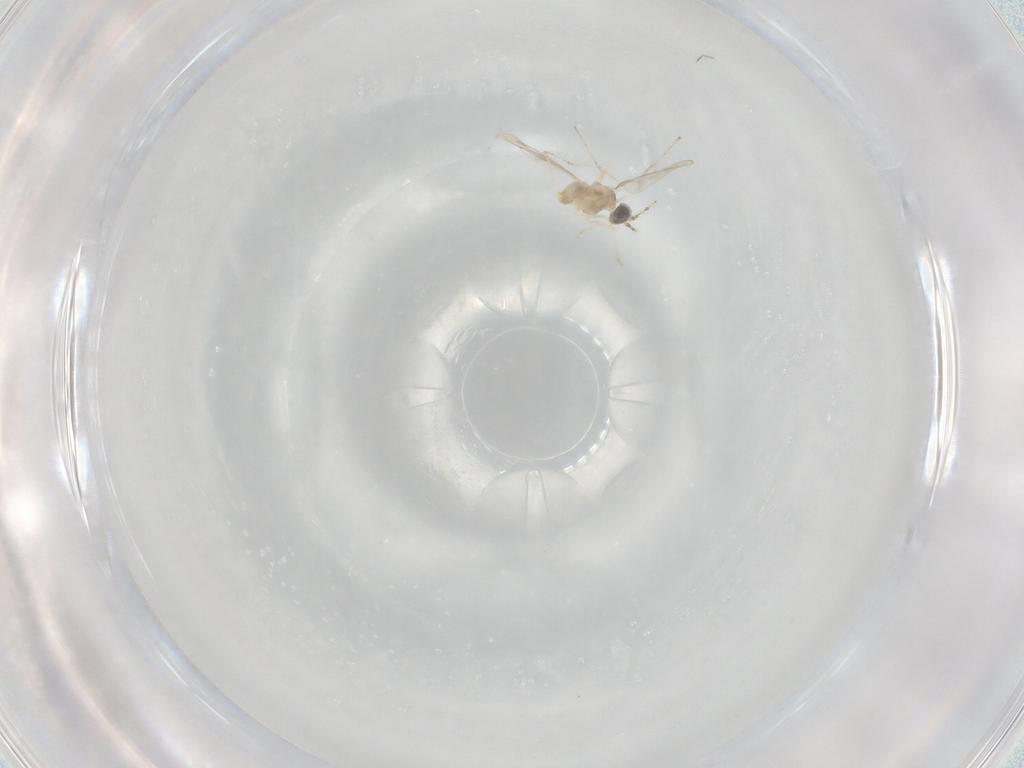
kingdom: Animalia
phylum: Arthropoda
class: Insecta
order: Diptera
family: Cecidomyiidae
